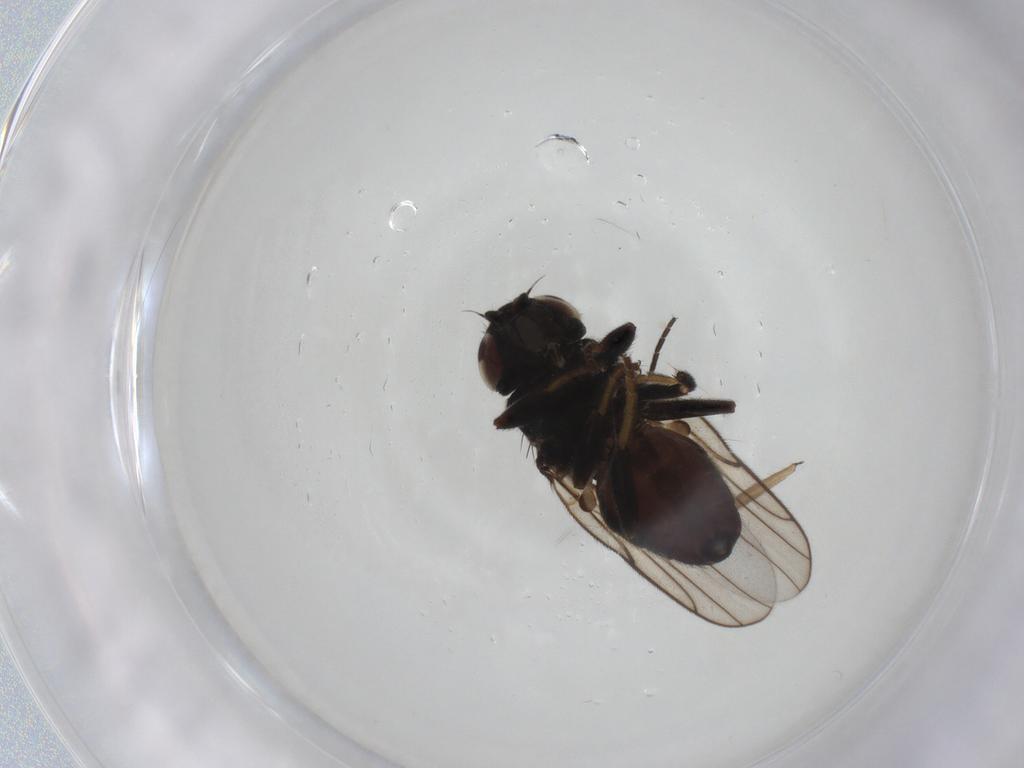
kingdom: Animalia
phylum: Arthropoda
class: Insecta
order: Diptera
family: Chloropidae
